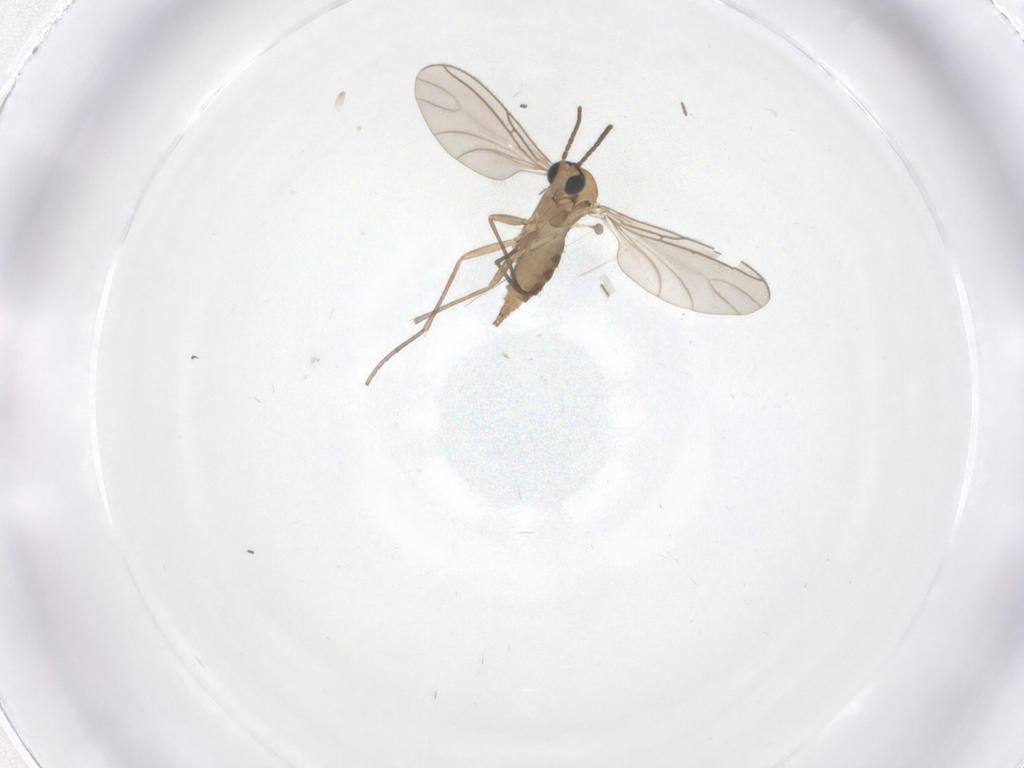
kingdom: Animalia
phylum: Arthropoda
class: Insecta
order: Diptera
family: Sciaridae
